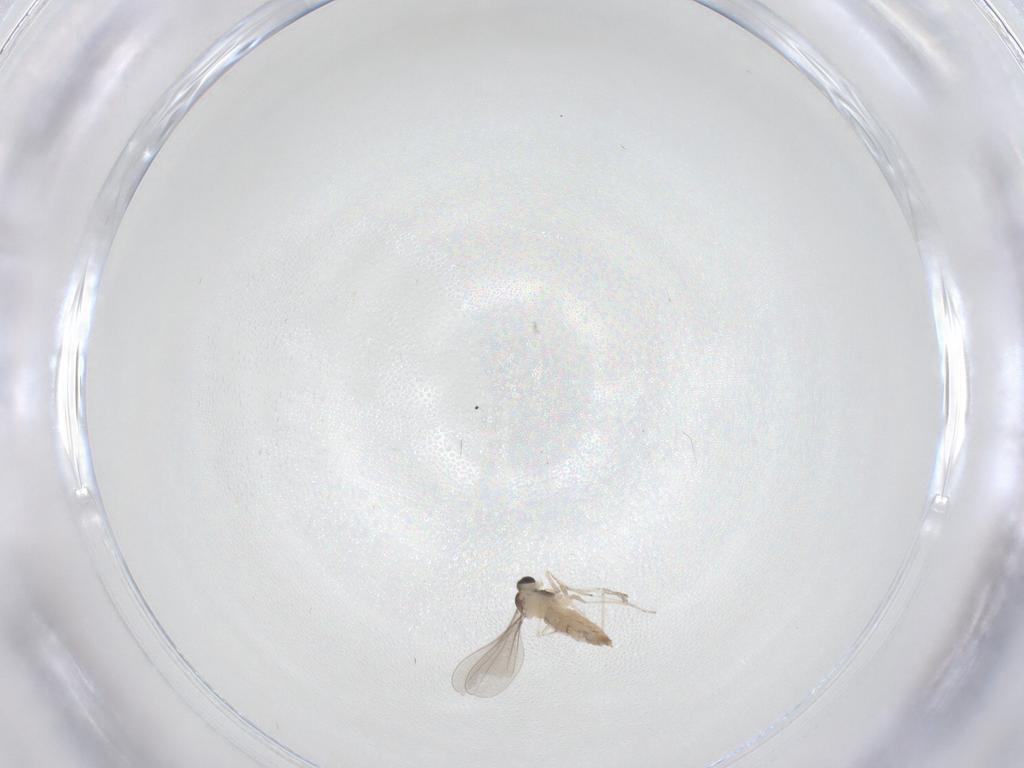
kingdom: Animalia
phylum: Arthropoda
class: Insecta
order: Diptera
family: Cecidomyiidae
